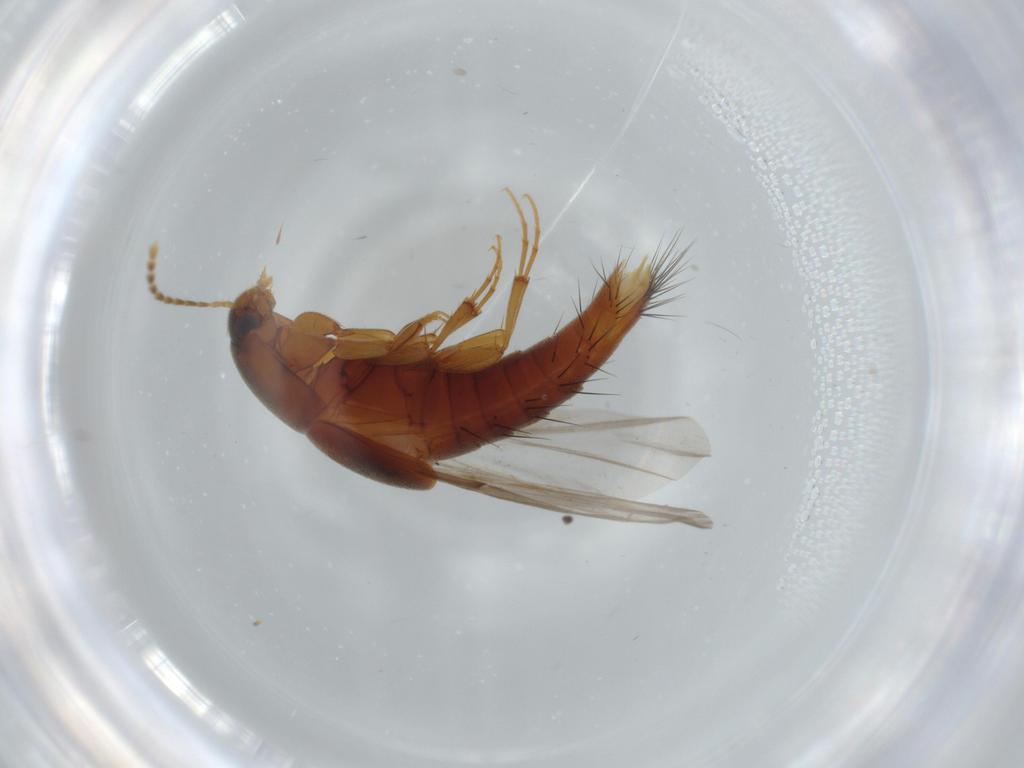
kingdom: Animalia
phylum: Arthropoda
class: Insecta
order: Coleoptera
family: Staphylinidae
